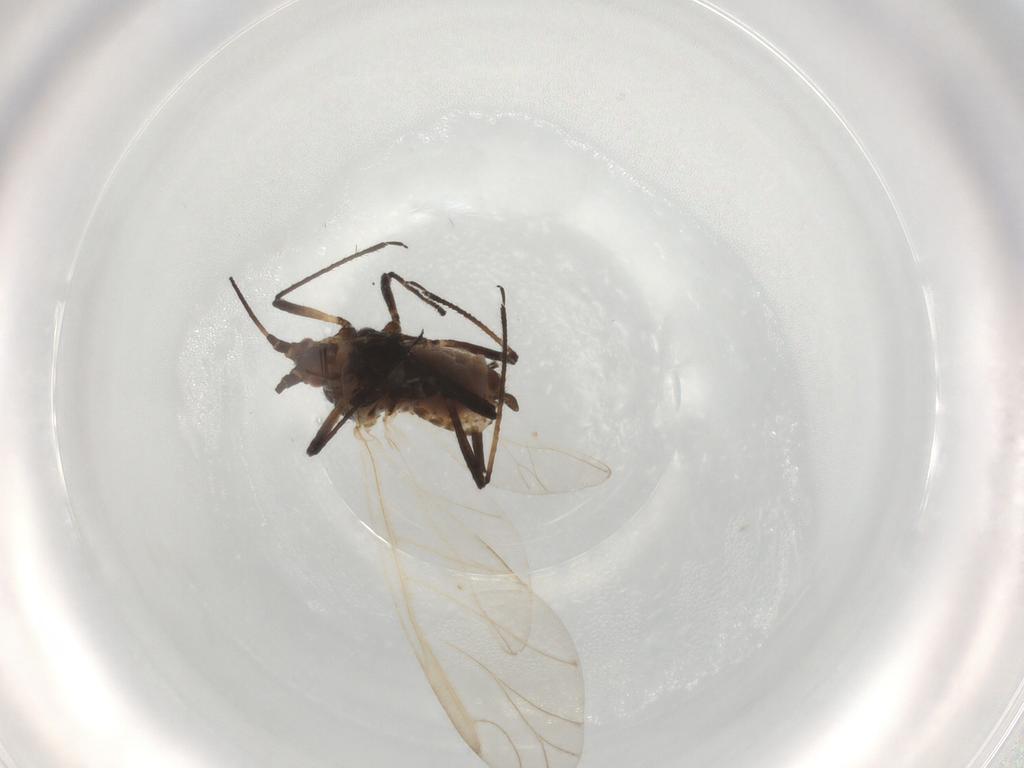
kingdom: Animalia
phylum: Arthropoda
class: Insecta
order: Hemiptera
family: Aphididae
